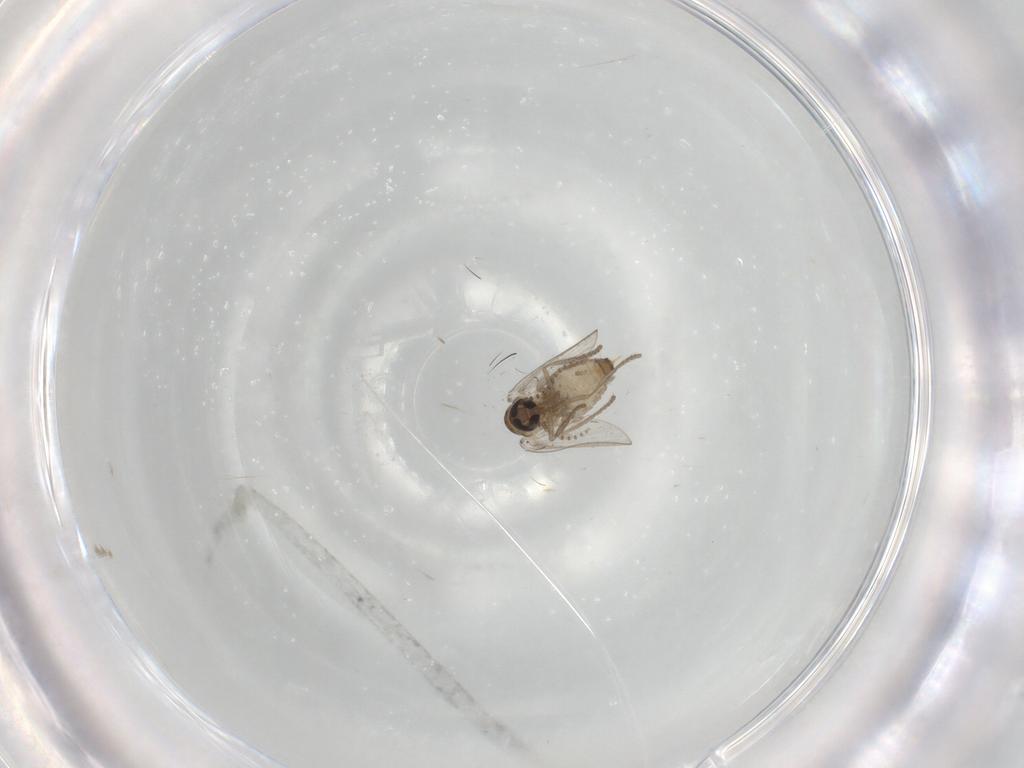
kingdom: Animalia
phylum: Arthropoda
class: Insecta
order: Diptera
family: Psychodidae
